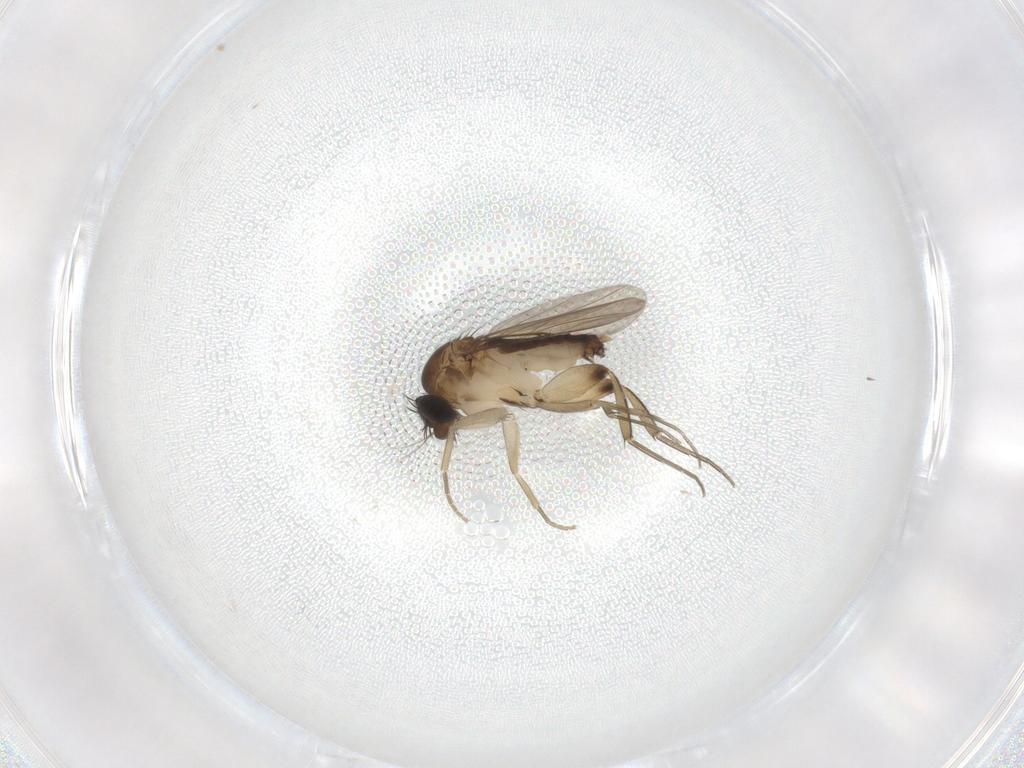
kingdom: Animalia
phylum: Arthropoda
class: Insecta
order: Diptera
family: Phoridae
